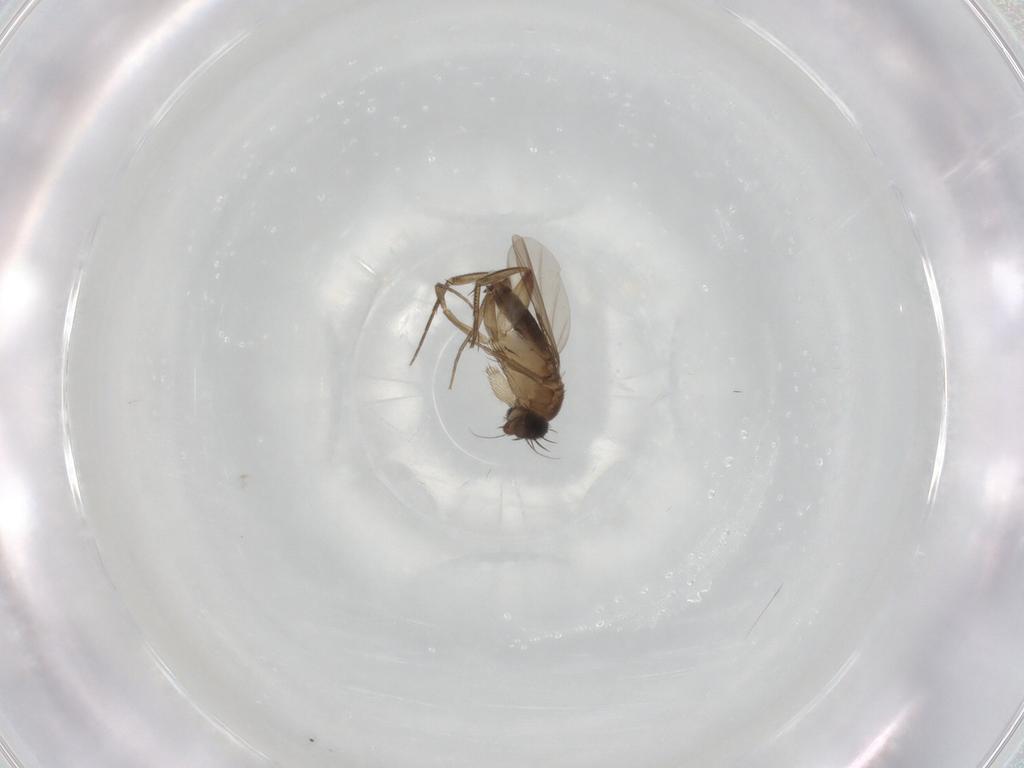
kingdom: Animalia
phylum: Arthropoda
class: Insecta
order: Diptera
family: Phoridae
